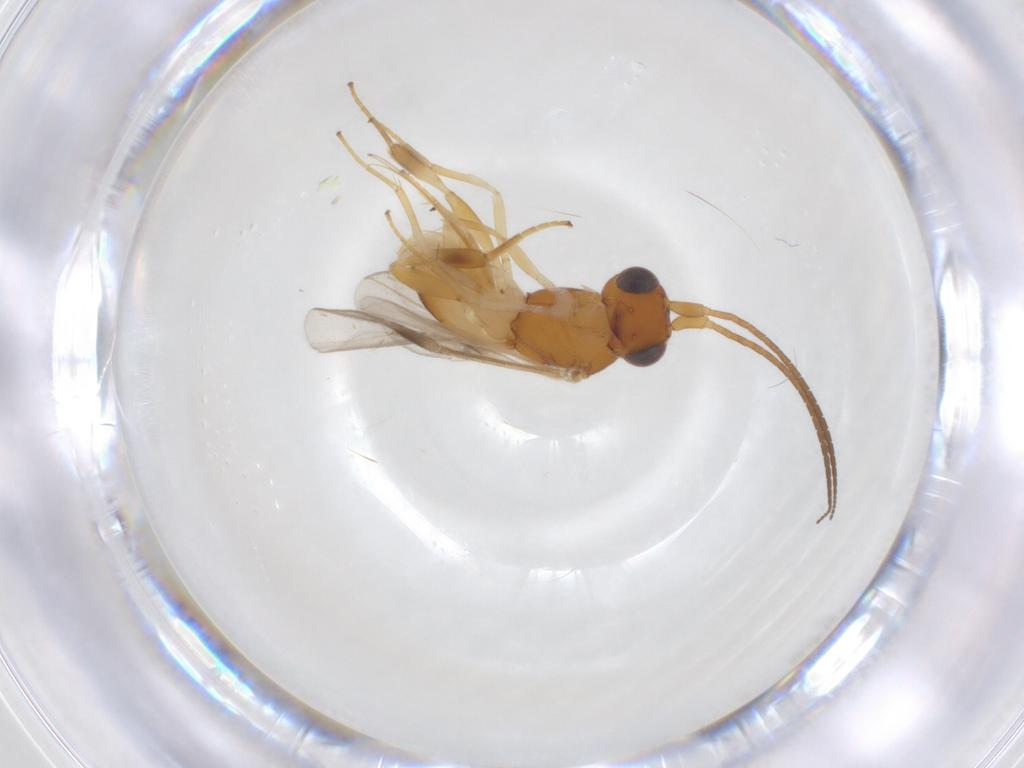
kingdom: Animalia
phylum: Arthropoda
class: Insecta
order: Hymenoptera
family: Braconidae
